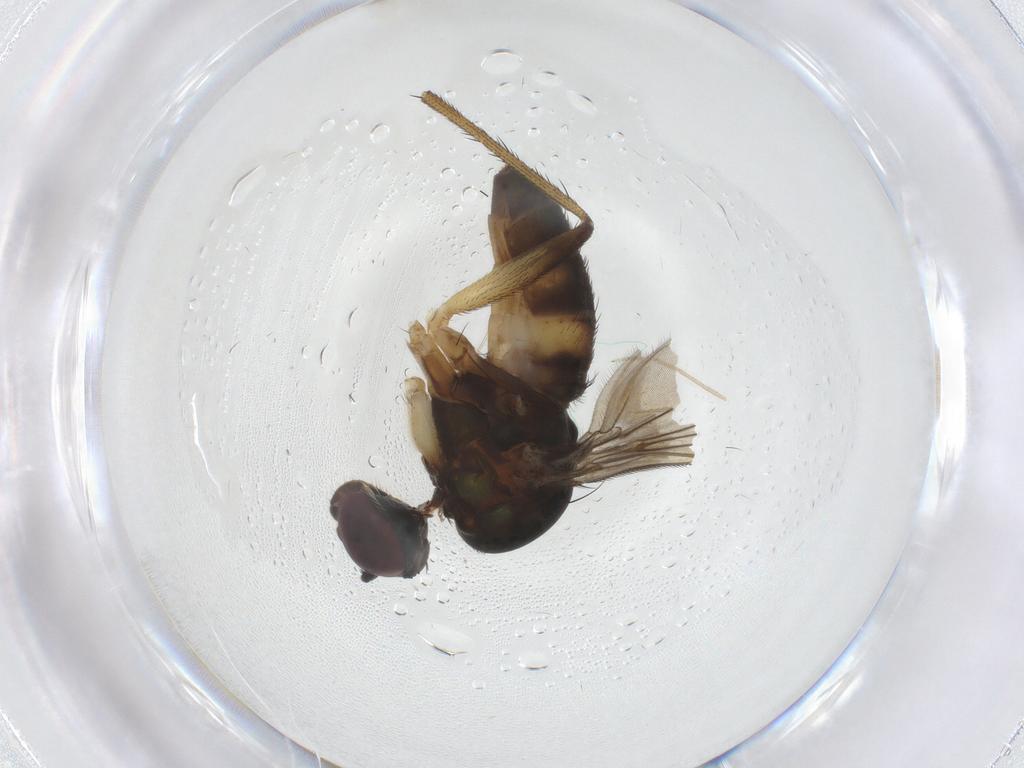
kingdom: Animalia
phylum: Arthropoda
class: Insecta
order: Diptera
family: Dolichopodidae
